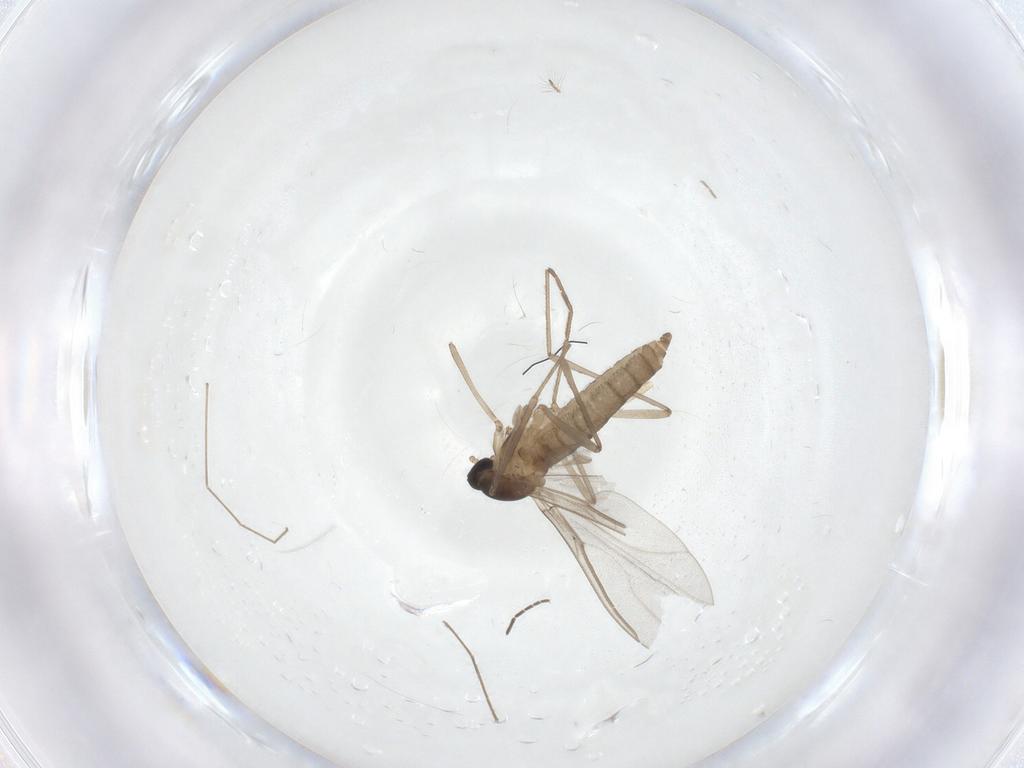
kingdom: Animalia
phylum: Arthropoda
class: Insecta
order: Diptera
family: Cecidomyiidae
